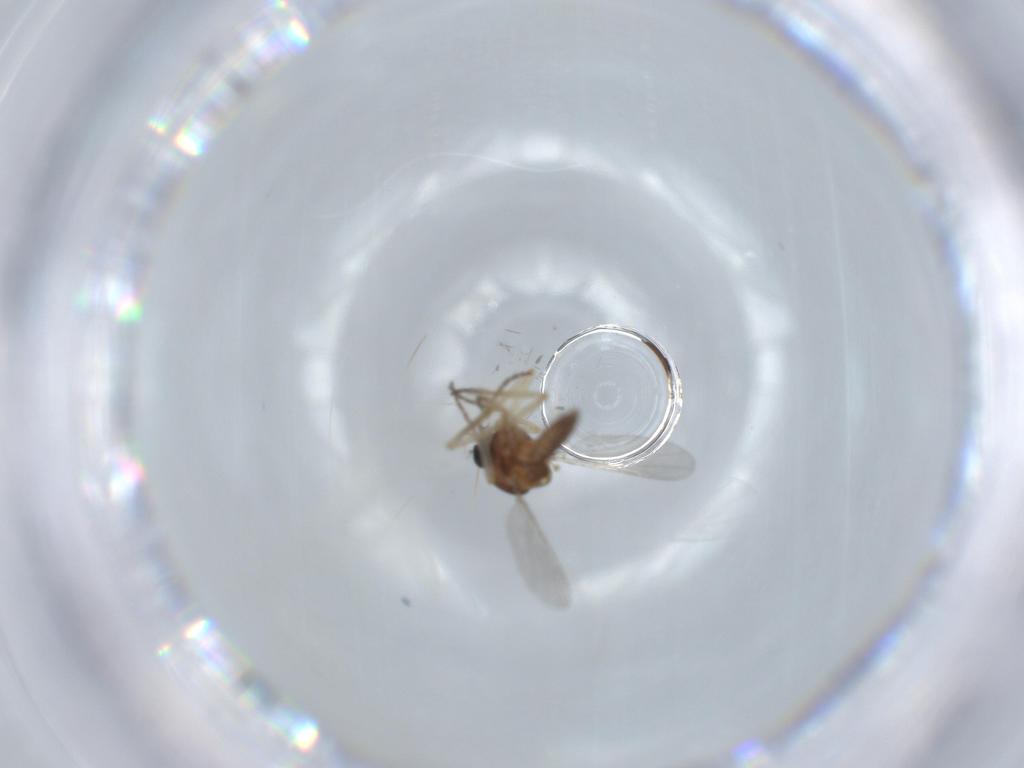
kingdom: Animalia
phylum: Arthropoda
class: Insecta
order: Diptera
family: Ceratopogonidae
